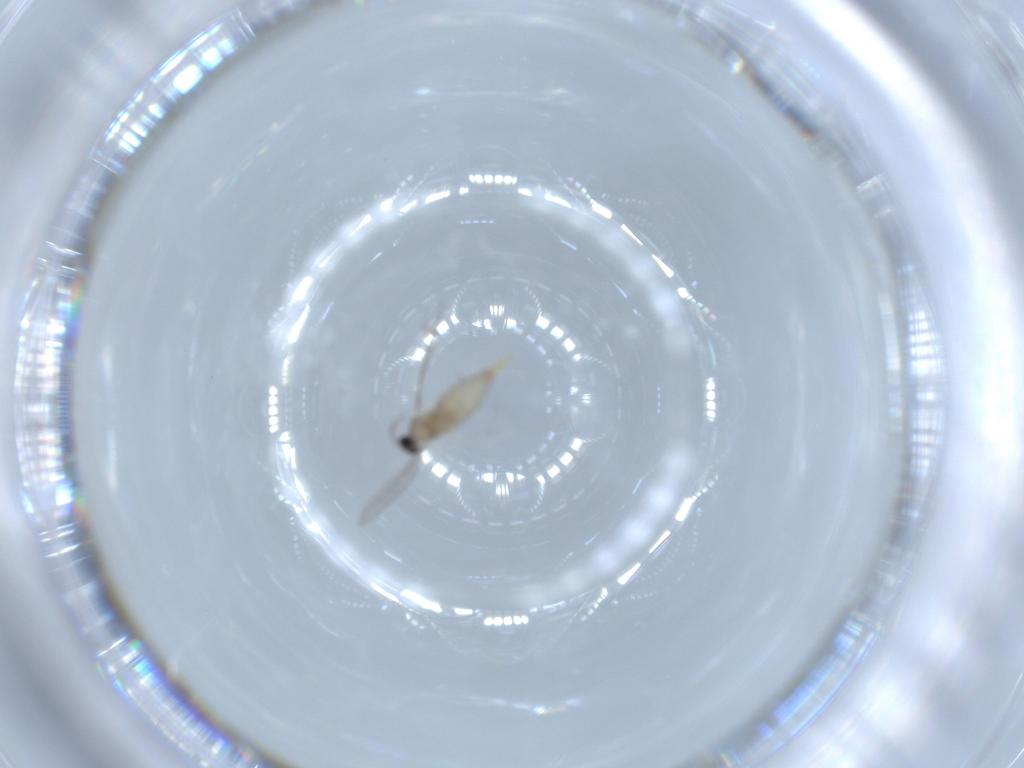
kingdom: Animalia
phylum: Arthropoda
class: Insecta
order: Diptera
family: Cecidomyiidae
